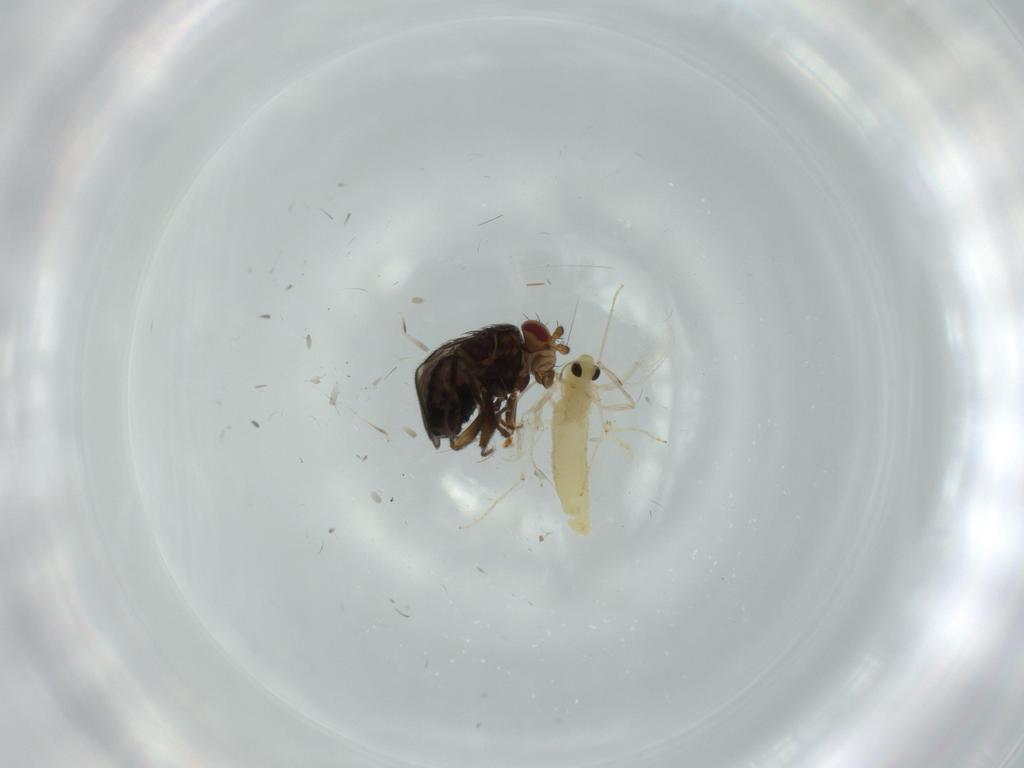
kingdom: Animalia
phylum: Arthropoda
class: Insecta
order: Diptera
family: Chironomidae
